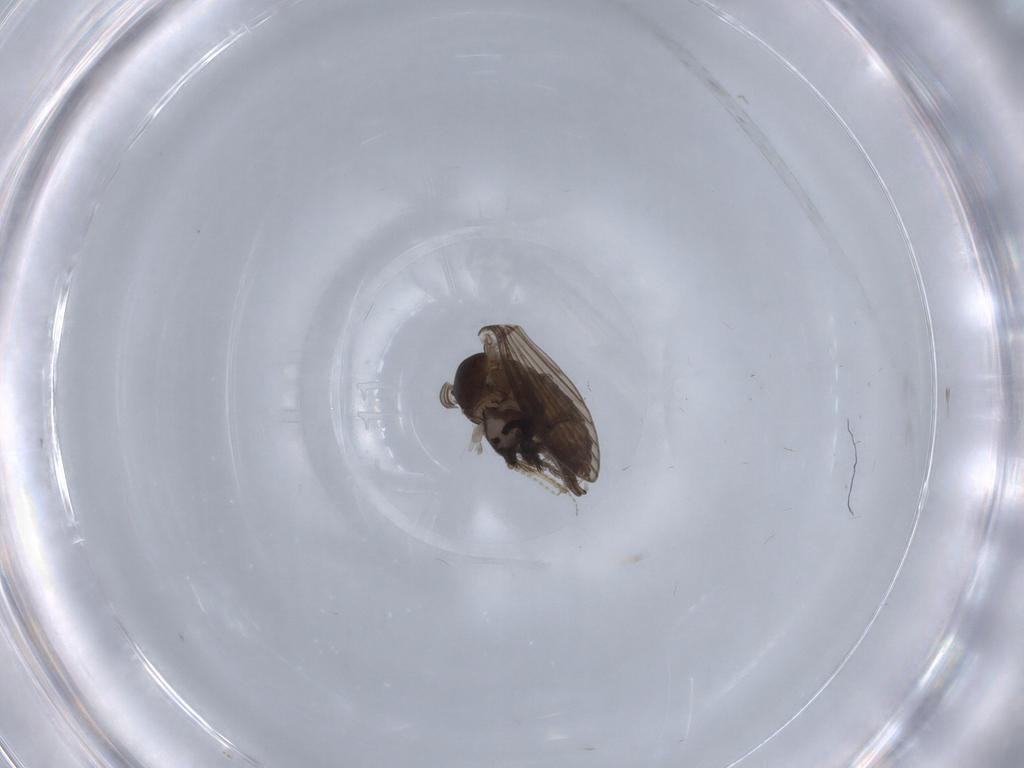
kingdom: Animalia
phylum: Arthropoda
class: Insecta
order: Diptera
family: Psychodidae
